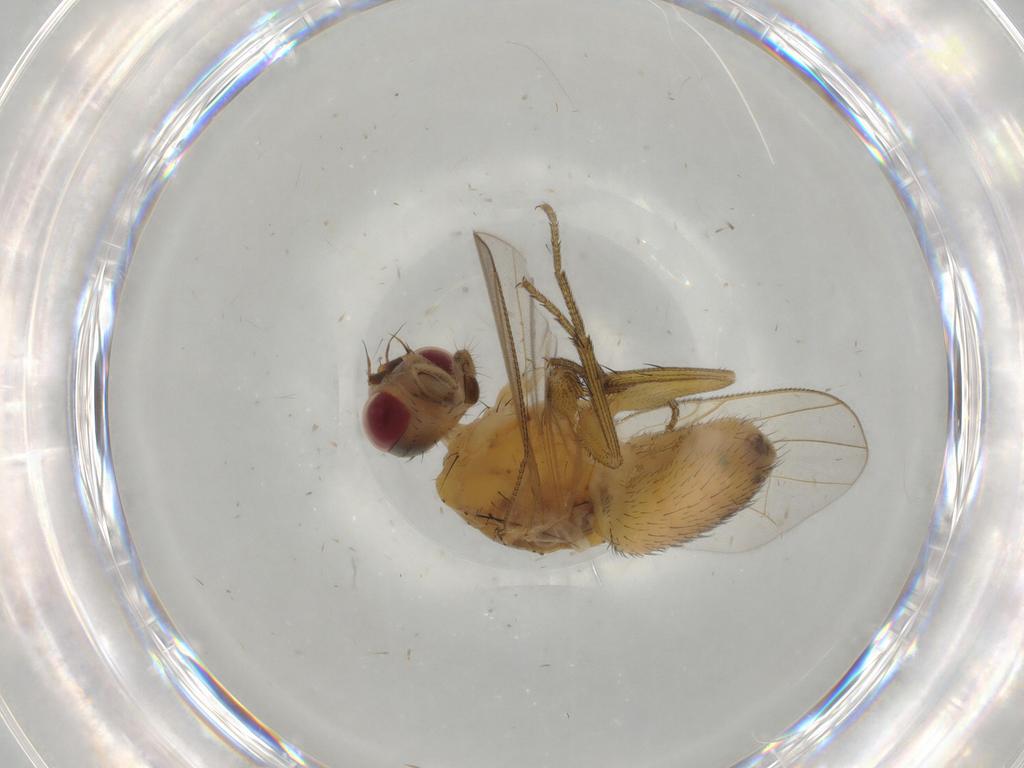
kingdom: Animalia
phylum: Arthropoda
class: Insecta
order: Diptera
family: Muscidae
